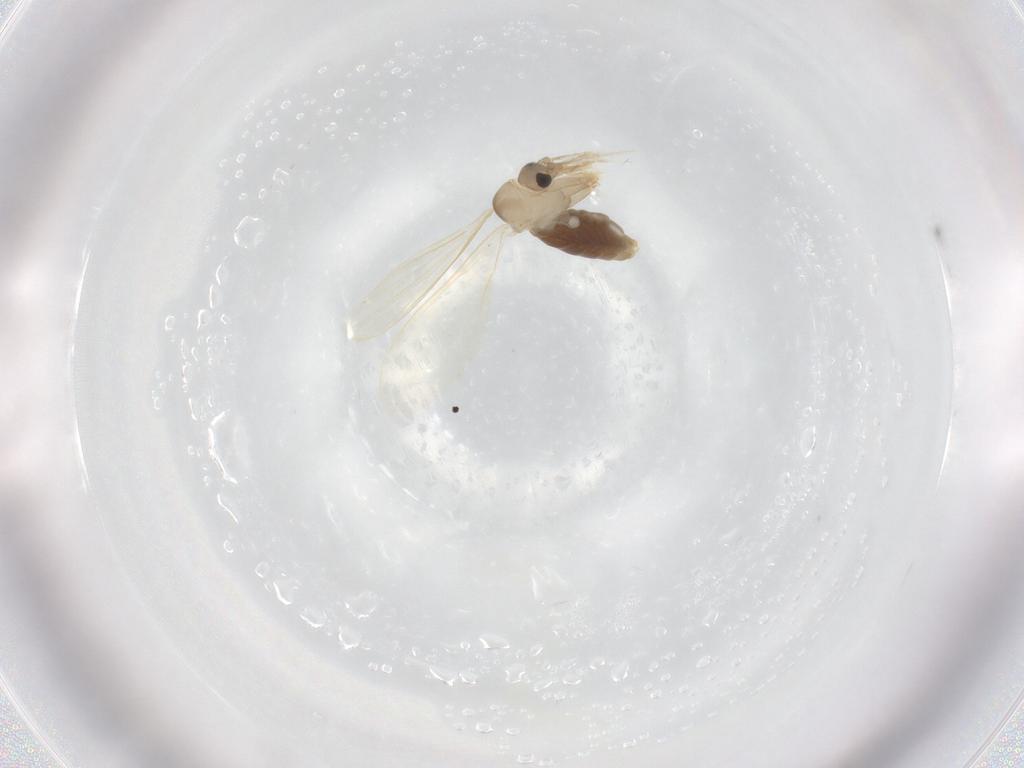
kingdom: Animalia
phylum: Arthropoda
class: Insecta
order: Diptera
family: Psychodidae
